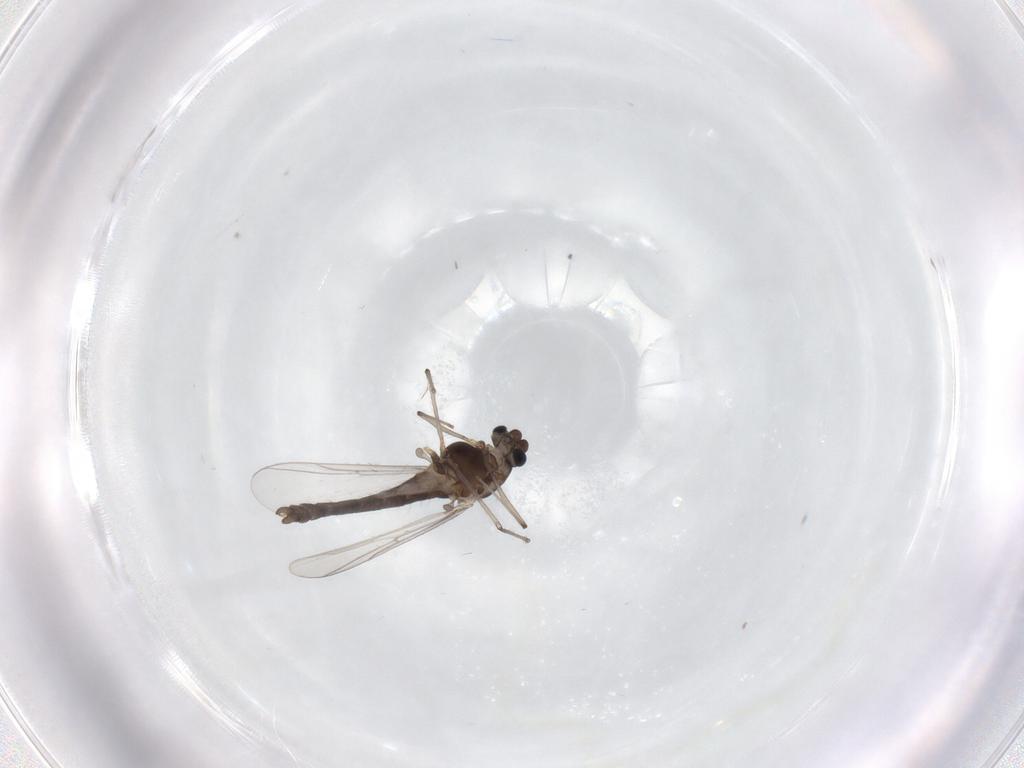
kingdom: Animalia
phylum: Arthropoda
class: Insecta
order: Diptera
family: Chironomidae
